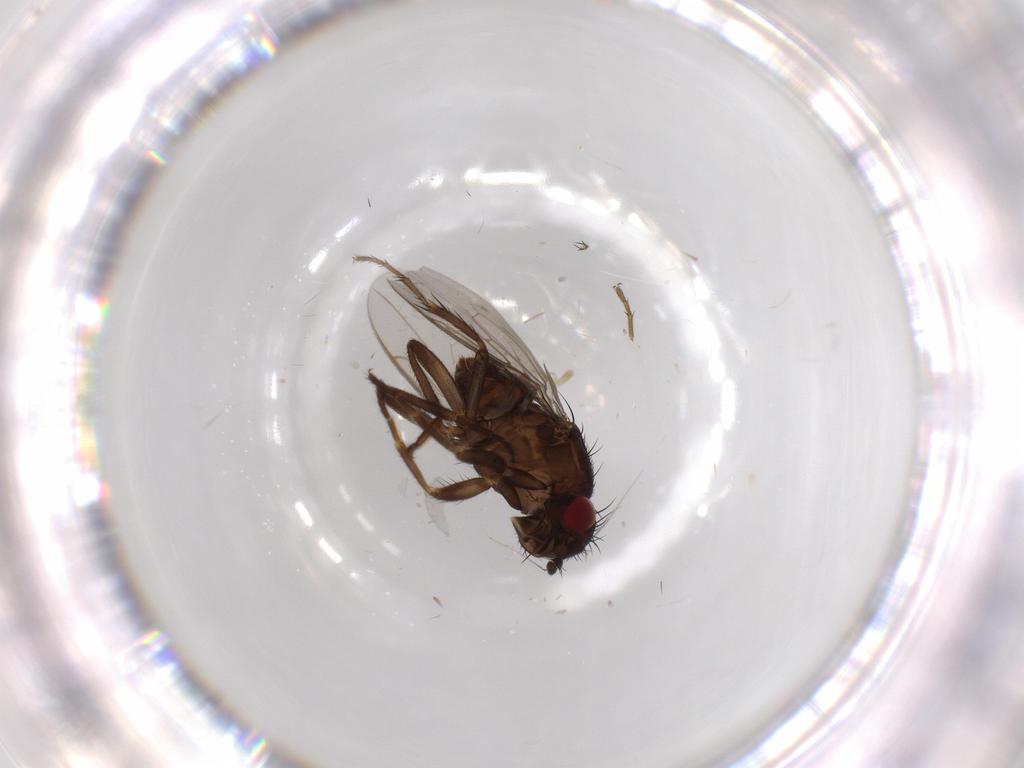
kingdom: Animalia
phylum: Arthropoda
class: Insecta
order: Diptera
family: Sphaeroceridae
